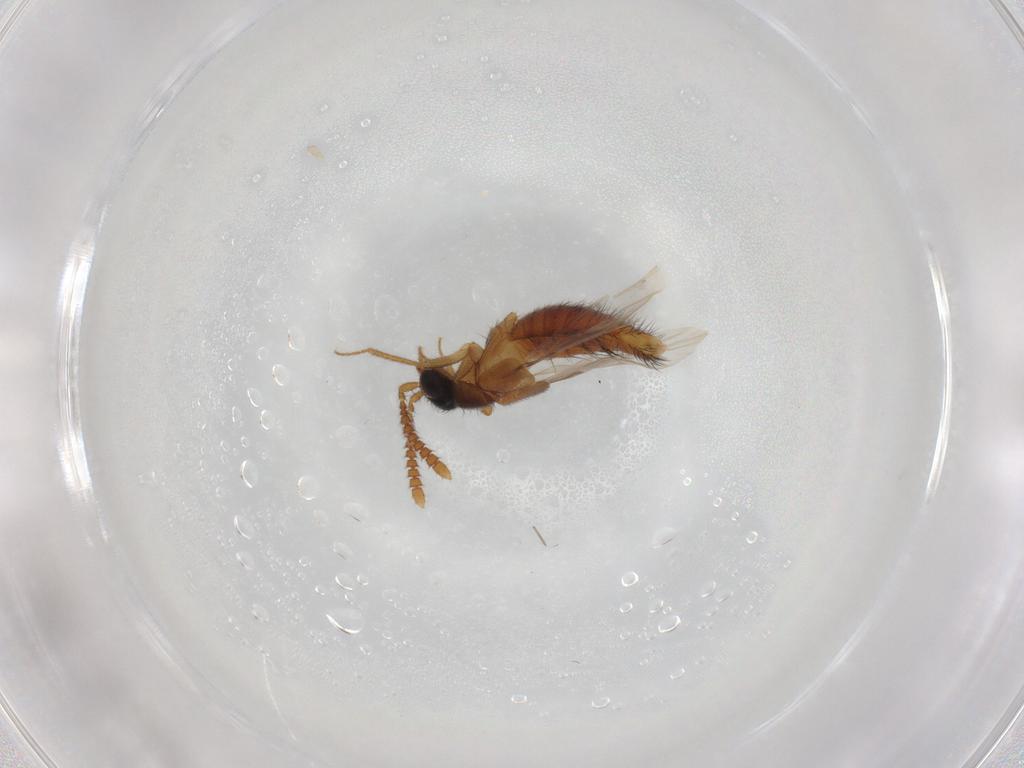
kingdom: Animalia
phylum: Arthropoda
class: Insecta
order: Coleoptera
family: Staphylinidae
